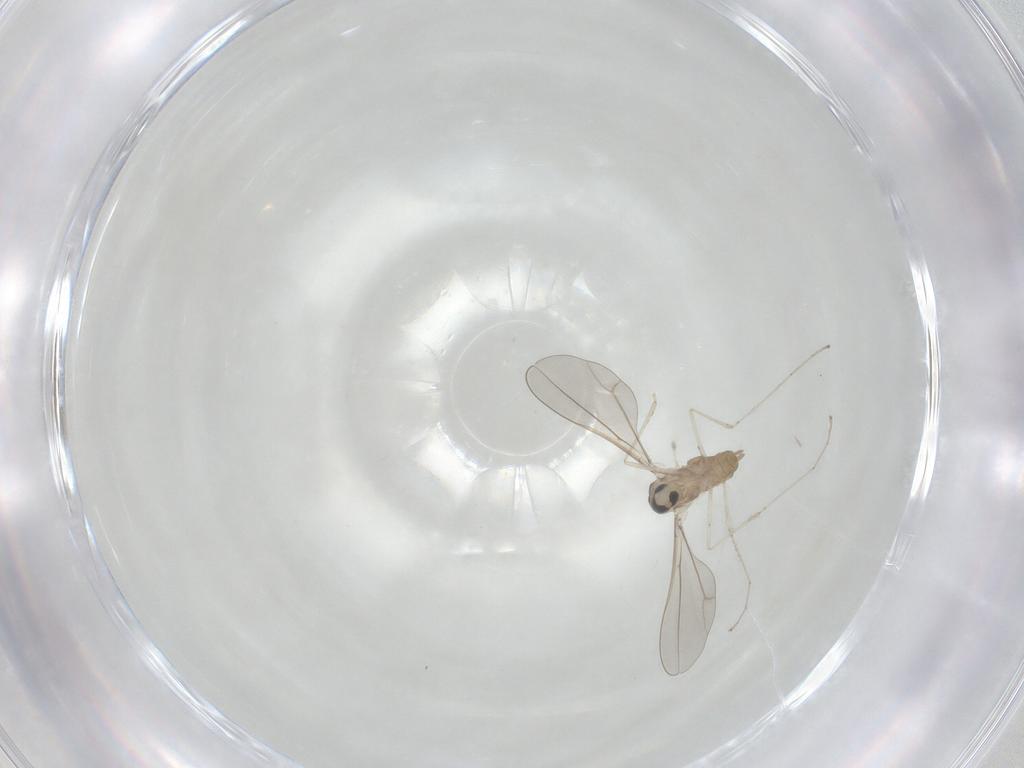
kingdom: Animalia
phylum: Arthropoda
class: Insecta
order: Diptera
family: Cecidomyiidae
